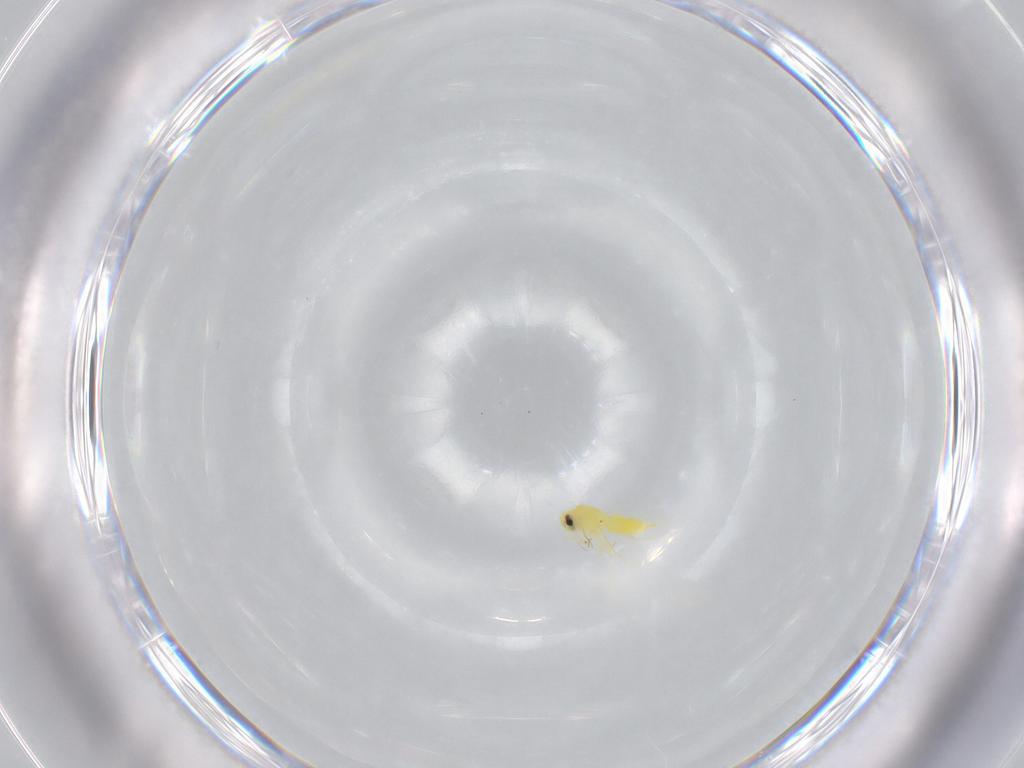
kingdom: Animalia
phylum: Arthropoda
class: Insecta
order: Hemiptera
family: Aleyrodidae
